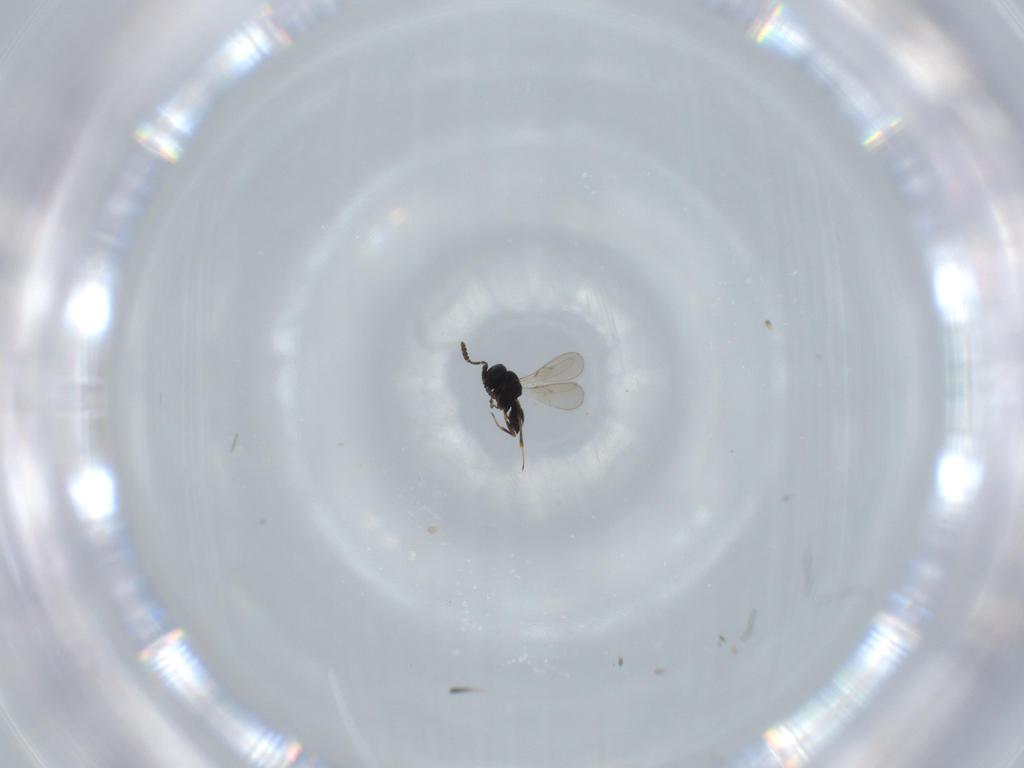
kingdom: Animalia
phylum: Arthropoda
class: Insecta
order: Hymenoptera
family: Scelionidae
